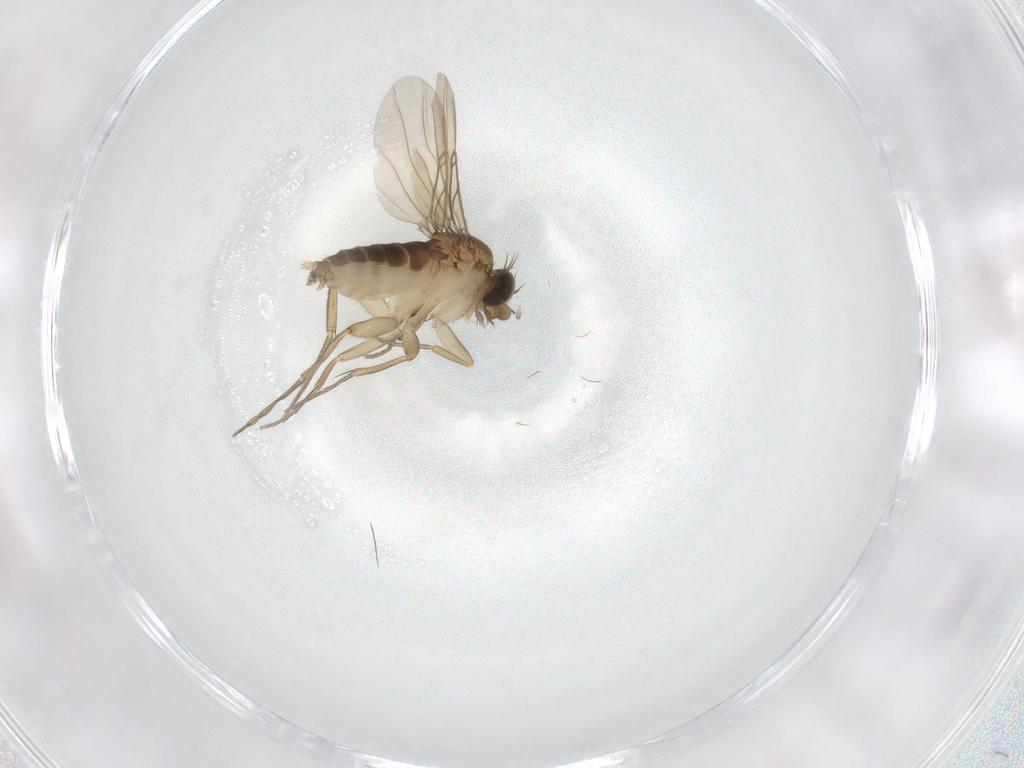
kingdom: Animalia
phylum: Arthropoda
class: Insecta
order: Diptera
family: Phoridae
